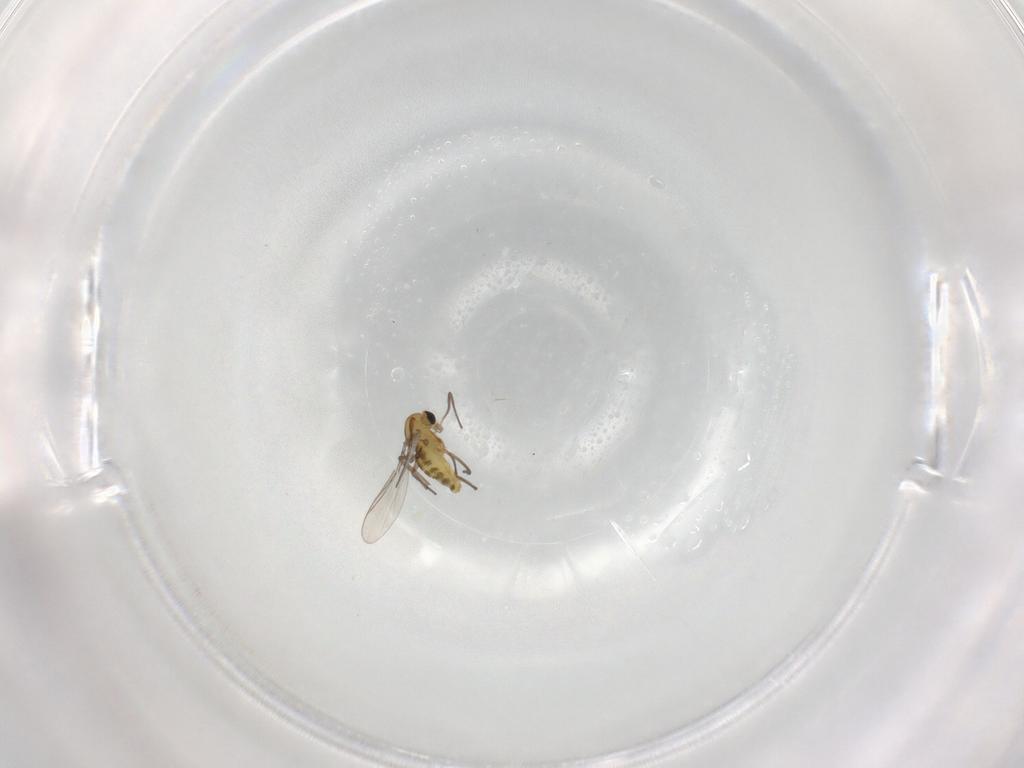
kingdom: Animalia
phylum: Arthropoda
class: Insecta
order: Diptera
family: Chironomidae
